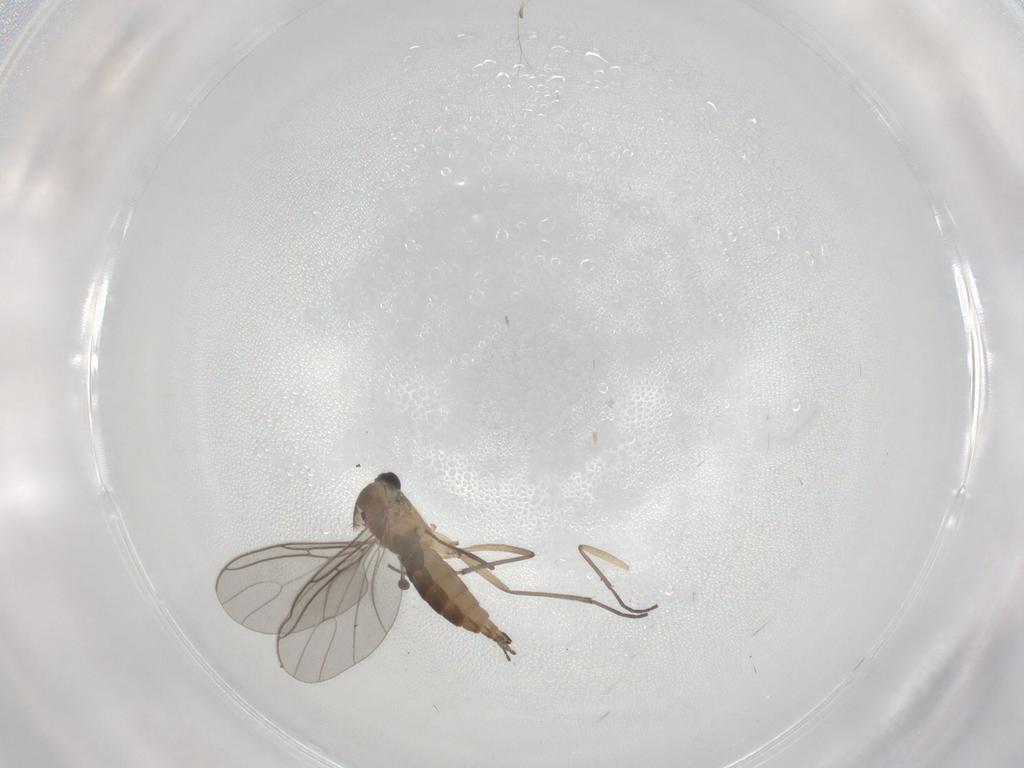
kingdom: Animalia
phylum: Arthropoda
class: Insecta
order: Diptera
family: Sciaridae
